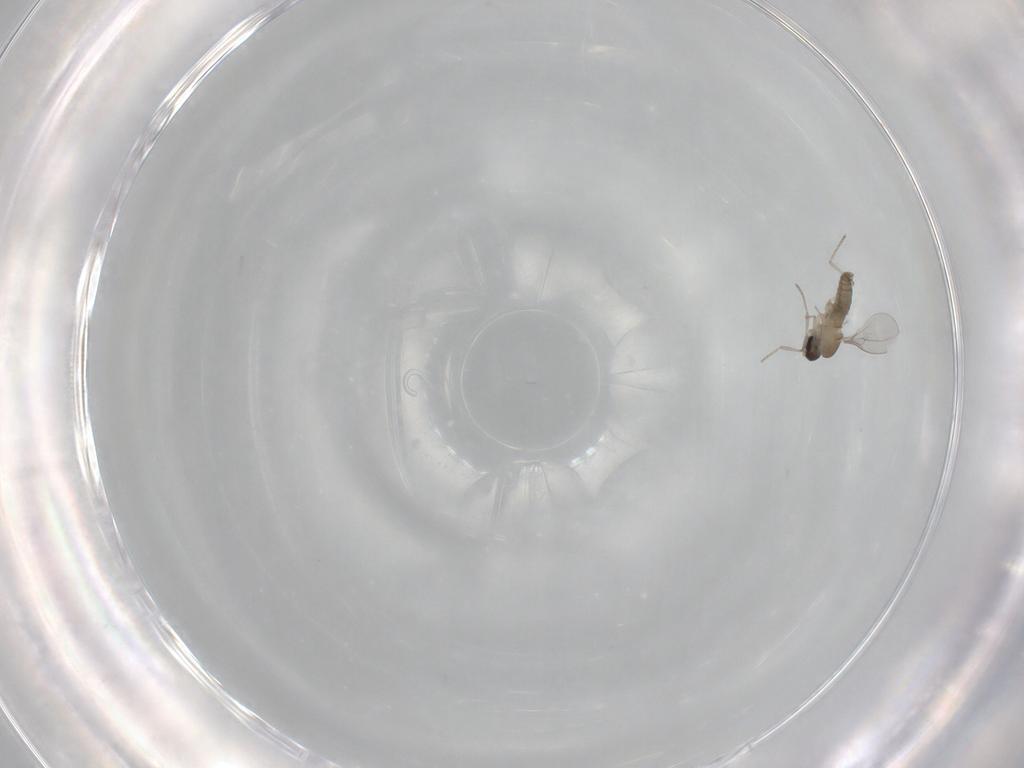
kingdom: Animalia
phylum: Arthropoda
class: Insecta
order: Diptera
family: Cecidomyiidae
